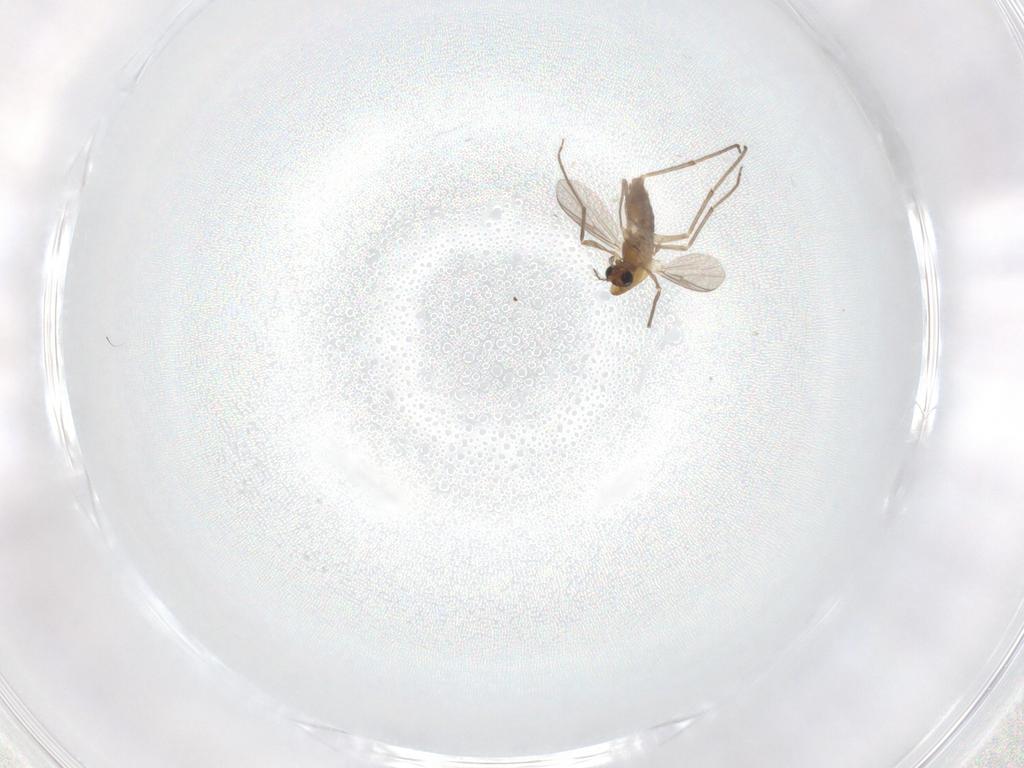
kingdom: Animalia
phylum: Arthropoda
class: Insecta
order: Diptera
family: Chironomidae
